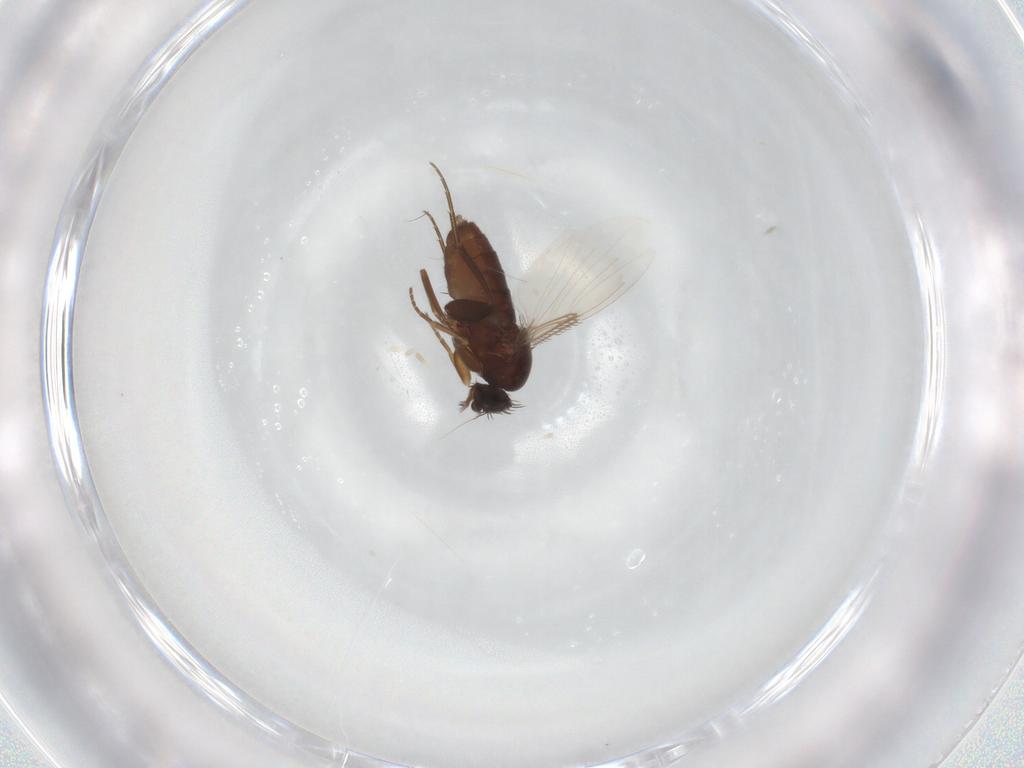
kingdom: Animalia
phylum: Arthropoda
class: Insecta
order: Diptera
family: Phoridae
